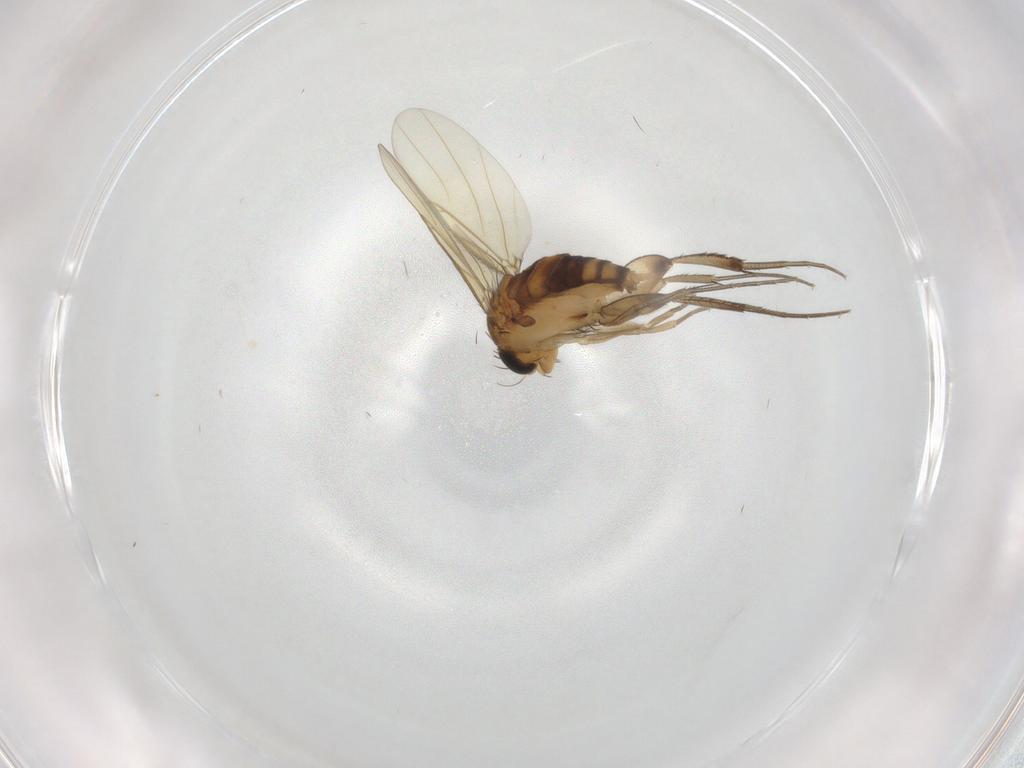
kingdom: Animalia
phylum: Arthropoda
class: Insecta
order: Diptera
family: Phoridae
